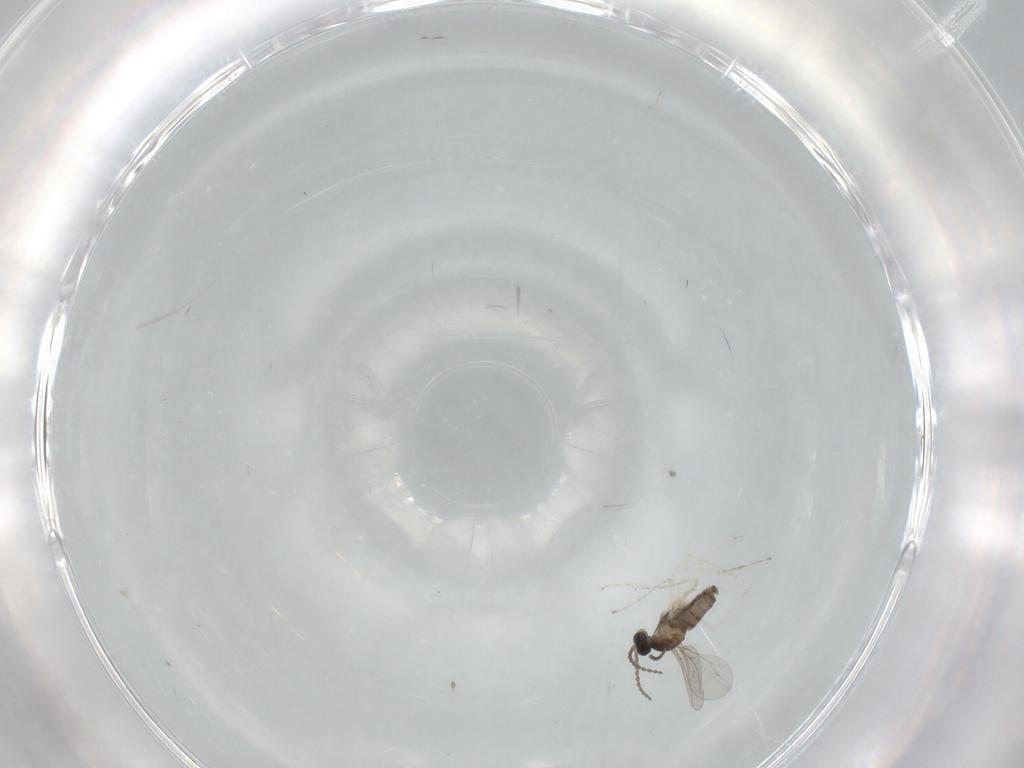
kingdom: Animalia
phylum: Arthropoda
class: Insecta
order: Diptera
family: Cecidomyiidae
